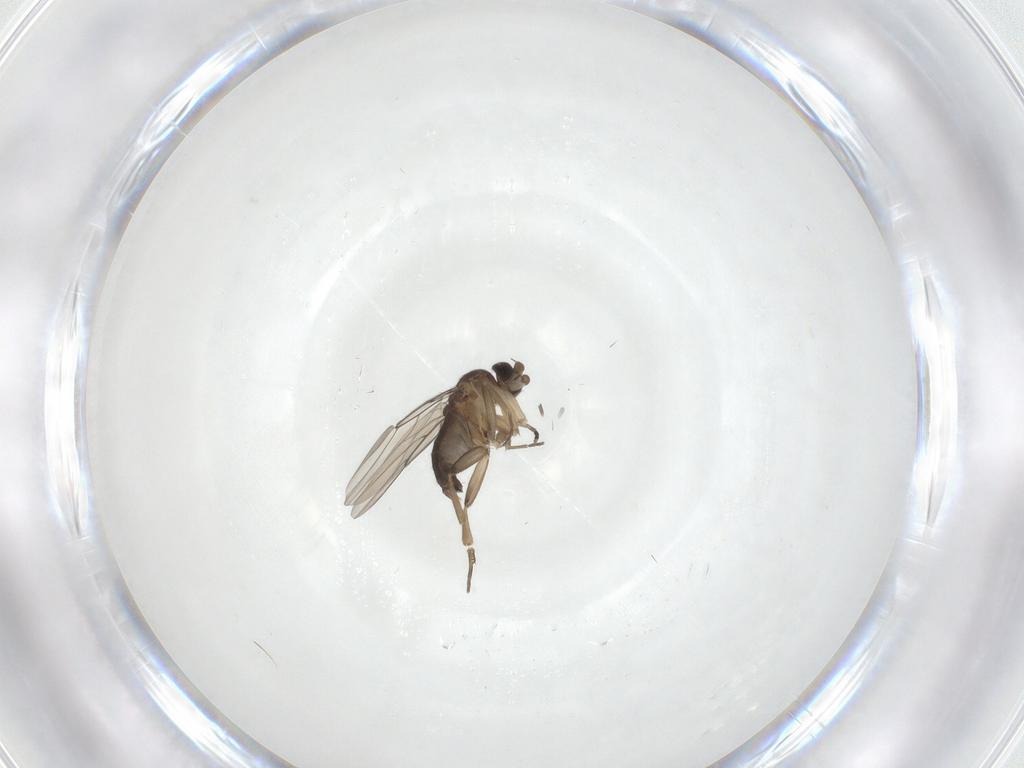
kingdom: Animalia
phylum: Arthropoda
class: Insecta
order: Diptera
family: Phoridae
